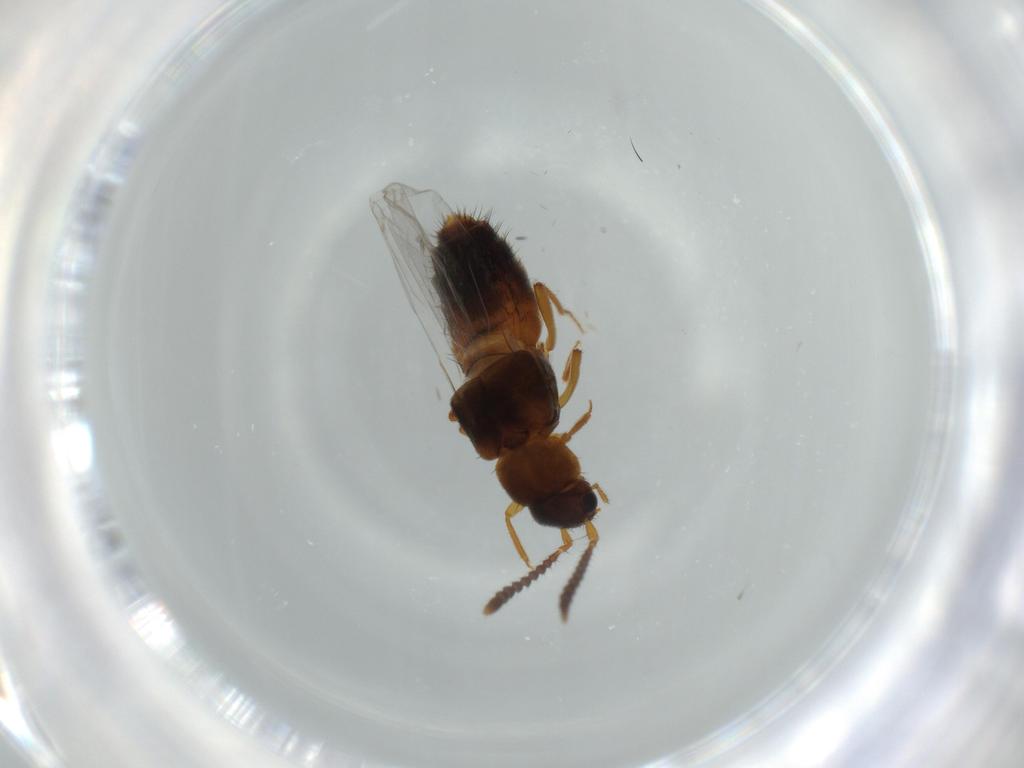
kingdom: Animalia
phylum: Arthropoda
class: Insecta
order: Coleoptera
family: Staphylinidae
